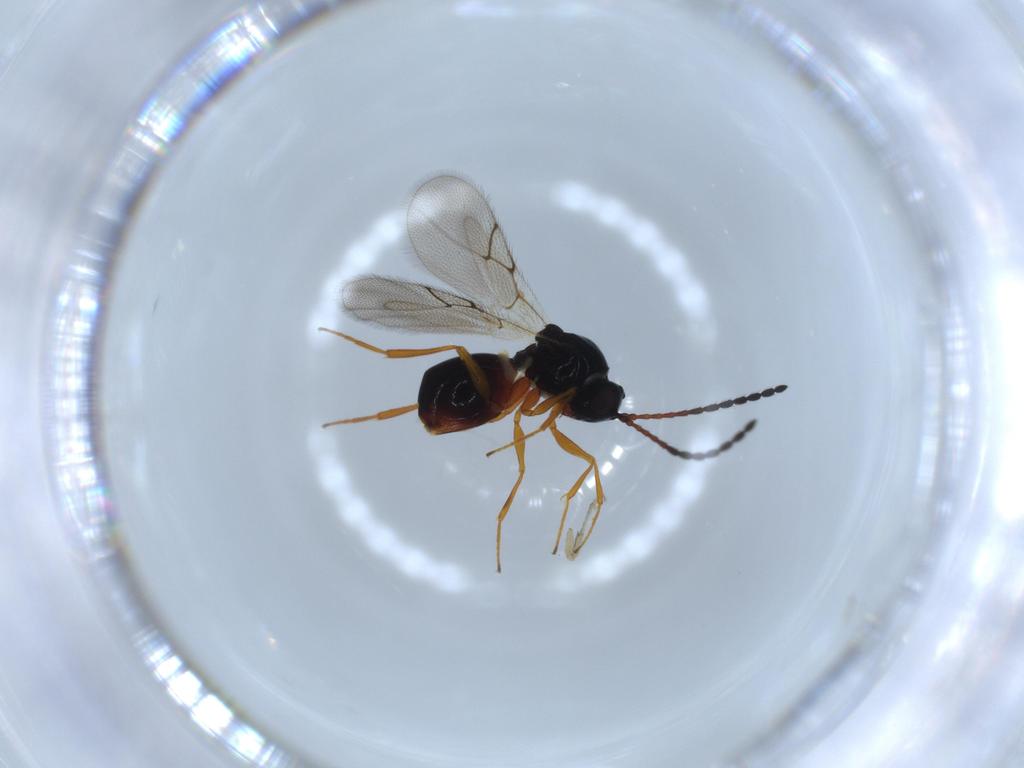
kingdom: Animalia
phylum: Arthropoda
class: Insecta
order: Hymenoptera
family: Figitidae
